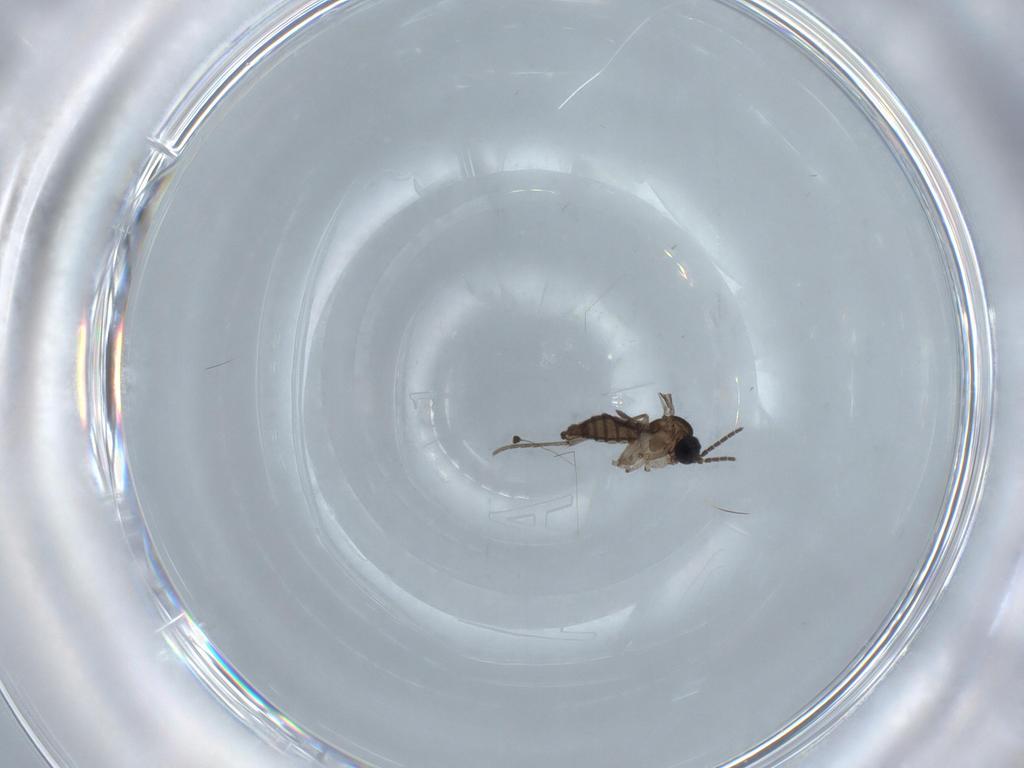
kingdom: Animalia
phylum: Arthropoda
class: Insecta
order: Diptera
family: Sciaridae
